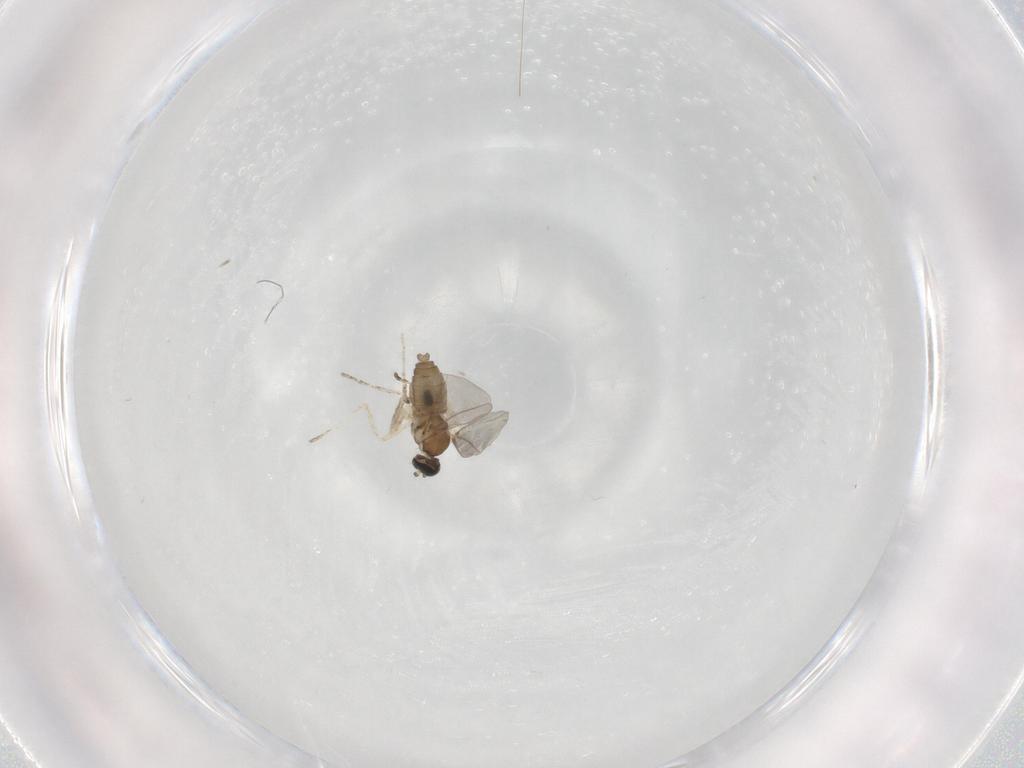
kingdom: Animalia
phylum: Arthropoda
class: Insecta
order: Diptera
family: Cecidomyiidae
